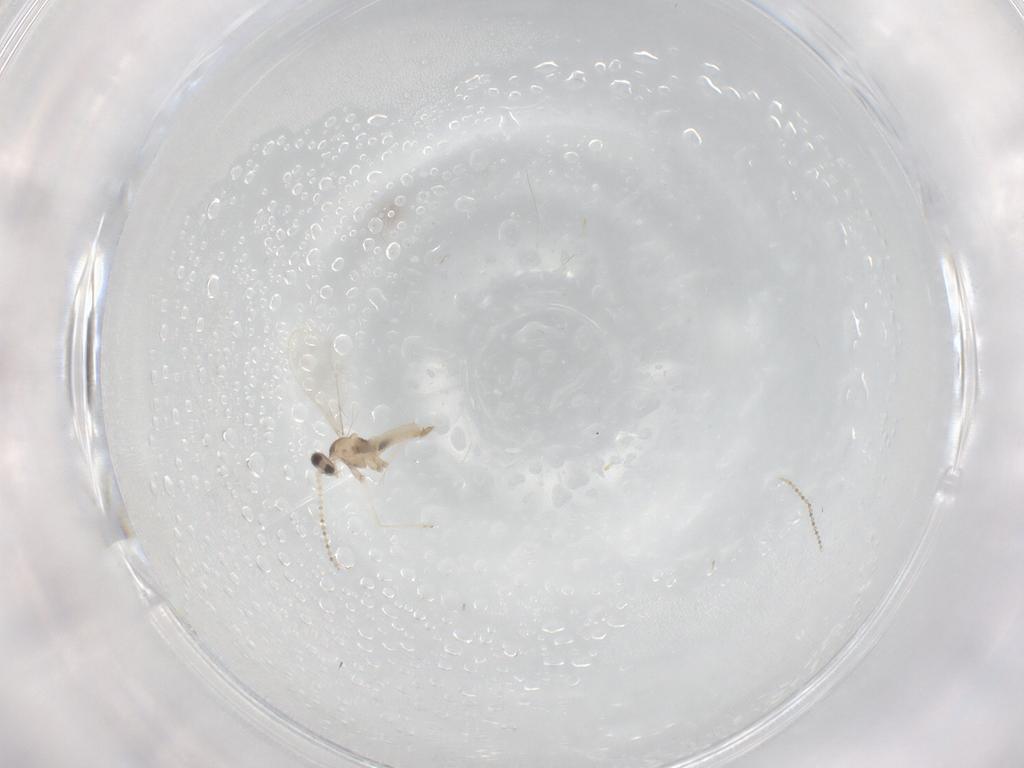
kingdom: Animalia
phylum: Arthropoda
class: Insecta
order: Diptera
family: Cecidomyiidae
